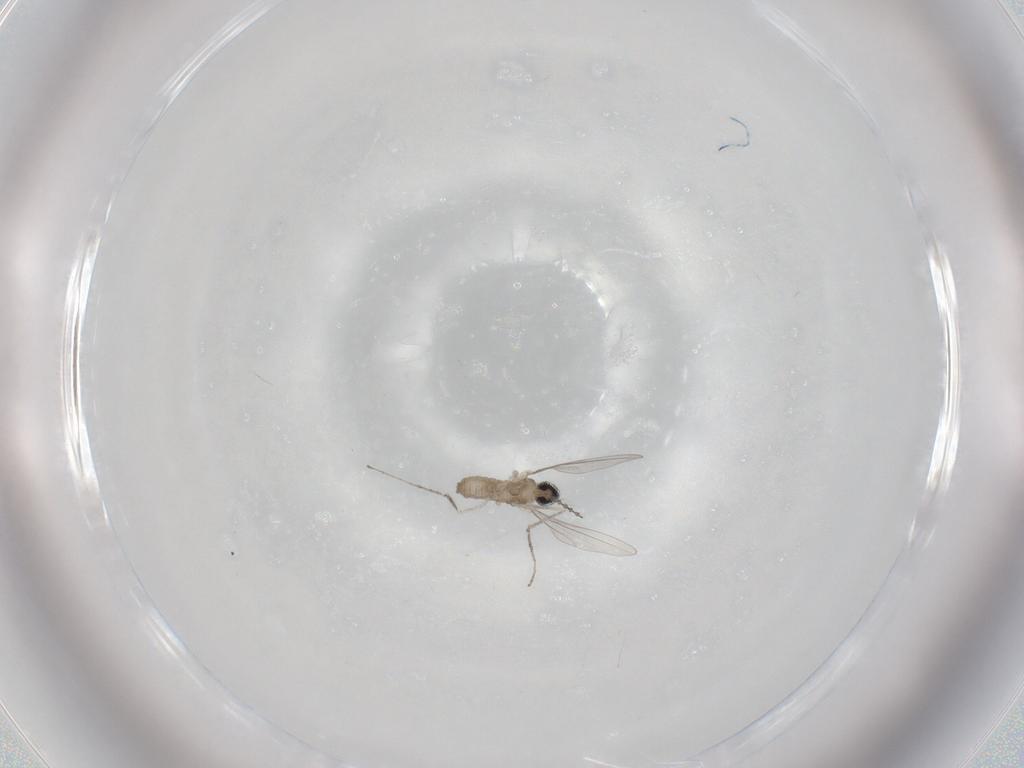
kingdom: Animalia
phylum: Arthropoda
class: Insecta
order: Diptera
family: Cecidomyiidae
